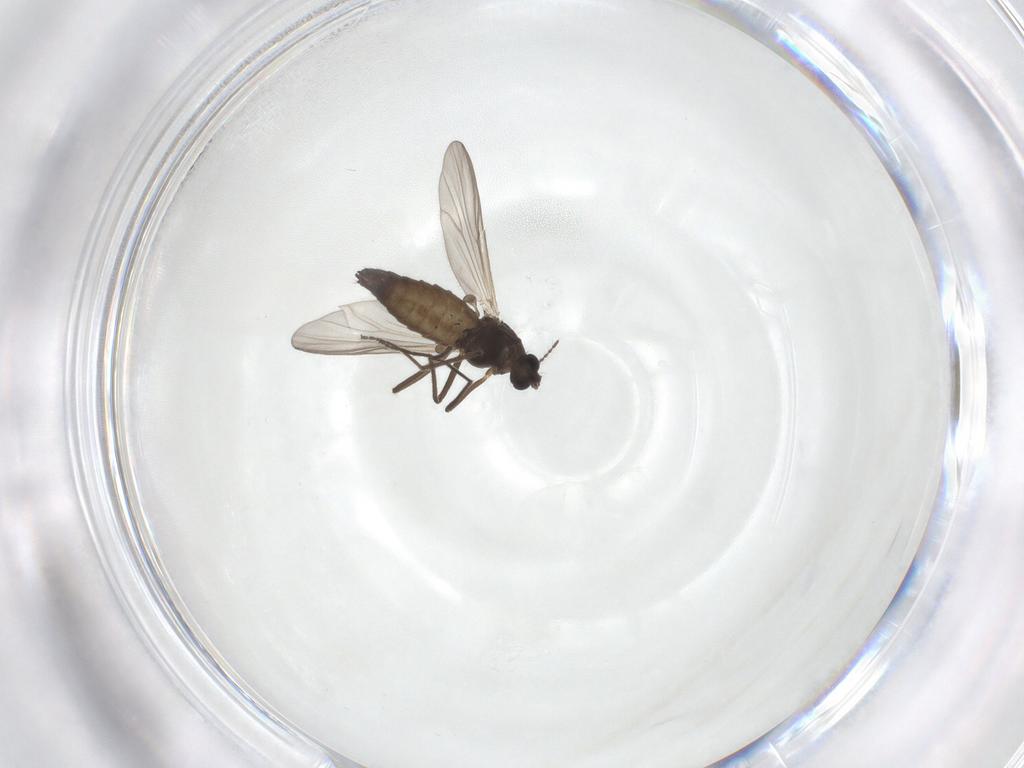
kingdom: Animalia
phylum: Arthropoda
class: Insecta
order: Diptera
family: Chironomidae
